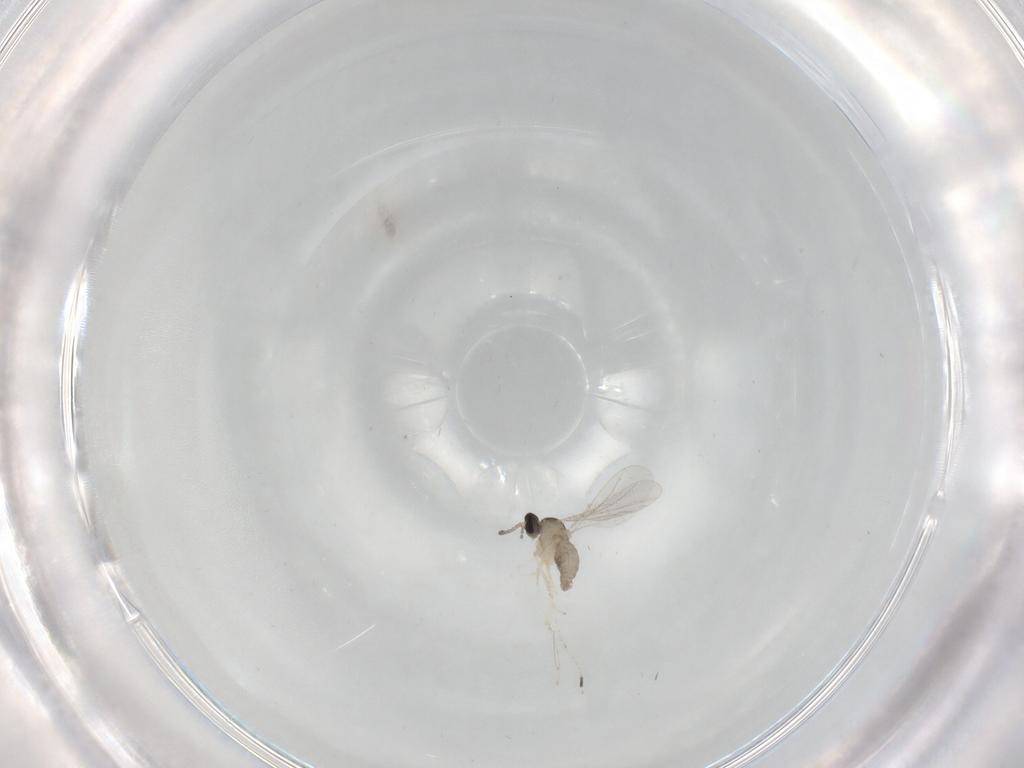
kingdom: Animalia
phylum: Arthropoda
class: Insecta
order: Diptera
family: Cecidomyiidae
